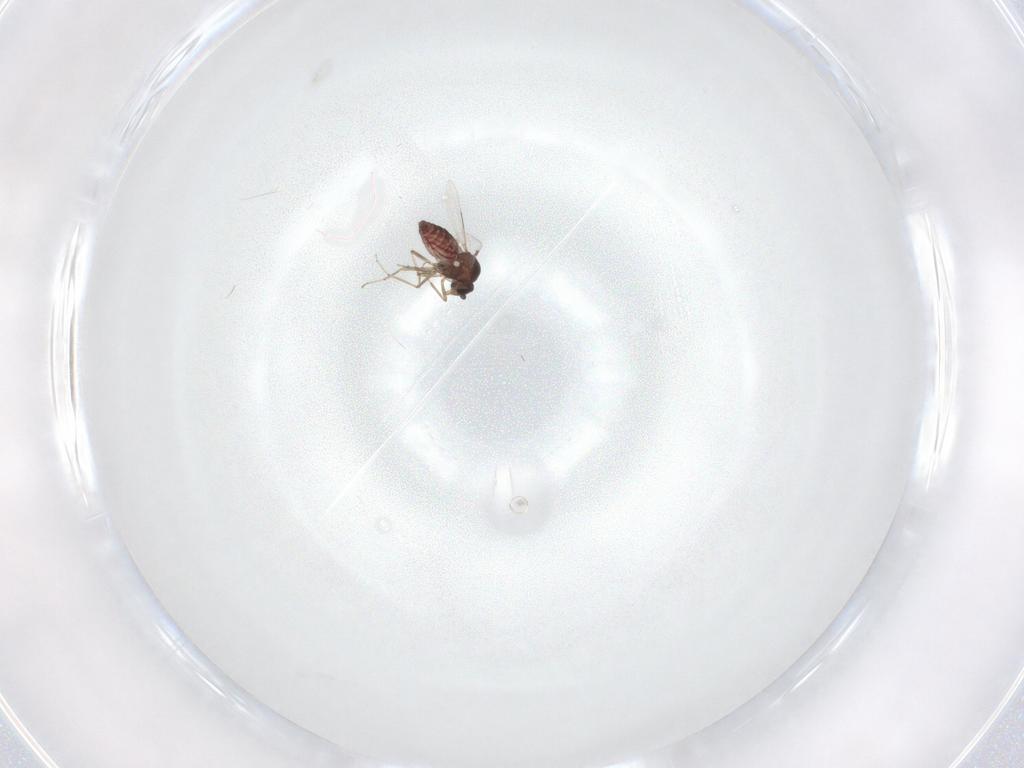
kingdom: Animalia
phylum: Arthropoda
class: Insecta
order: Diptera
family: Ceratopogonidae
